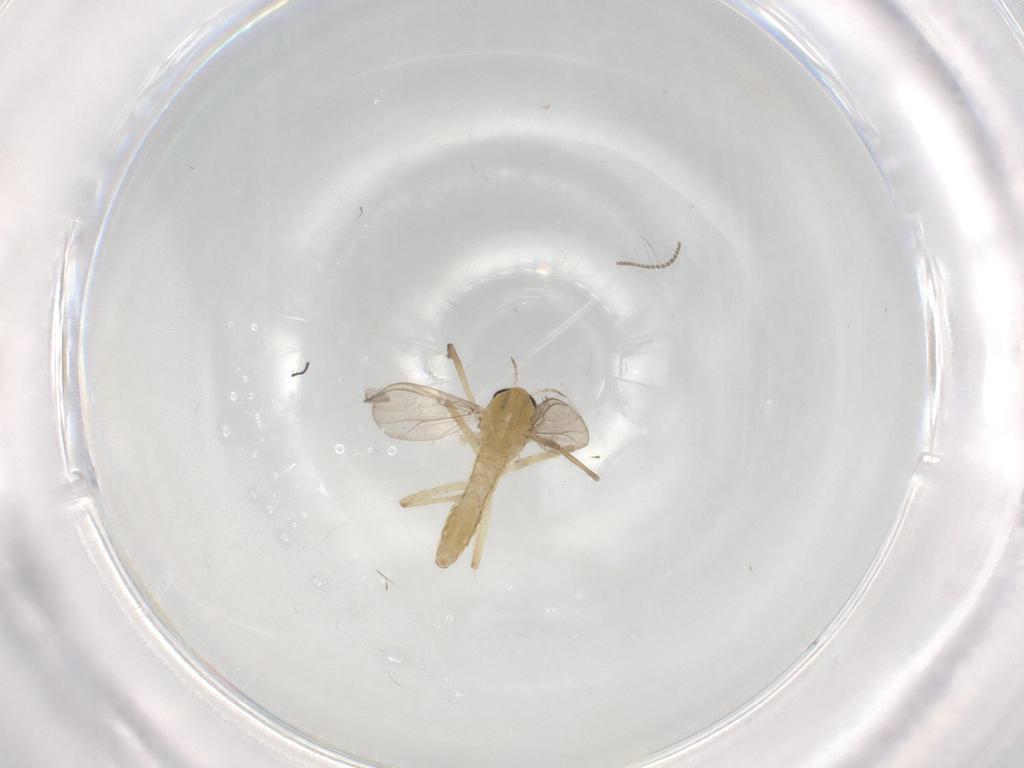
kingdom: Animalia
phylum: Arthropoda
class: Insecta
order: Diptera
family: Chironomidae
